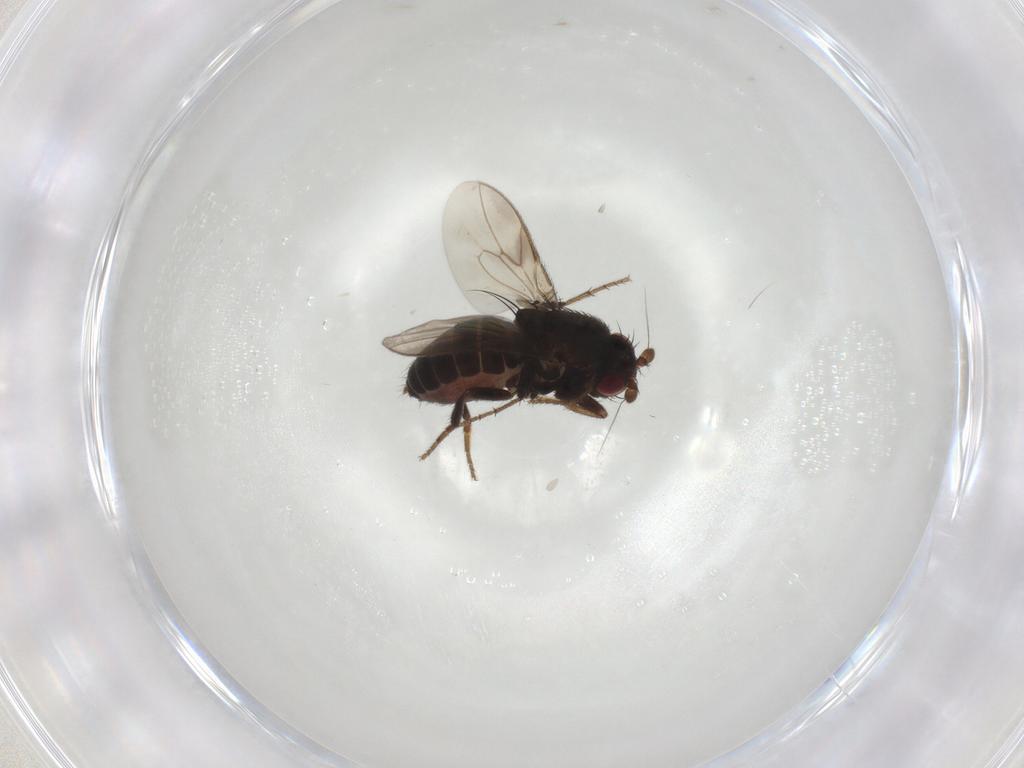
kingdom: Animalia
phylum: Arthropoda
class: Insecta
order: Diptera
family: Sphaeroceridae
